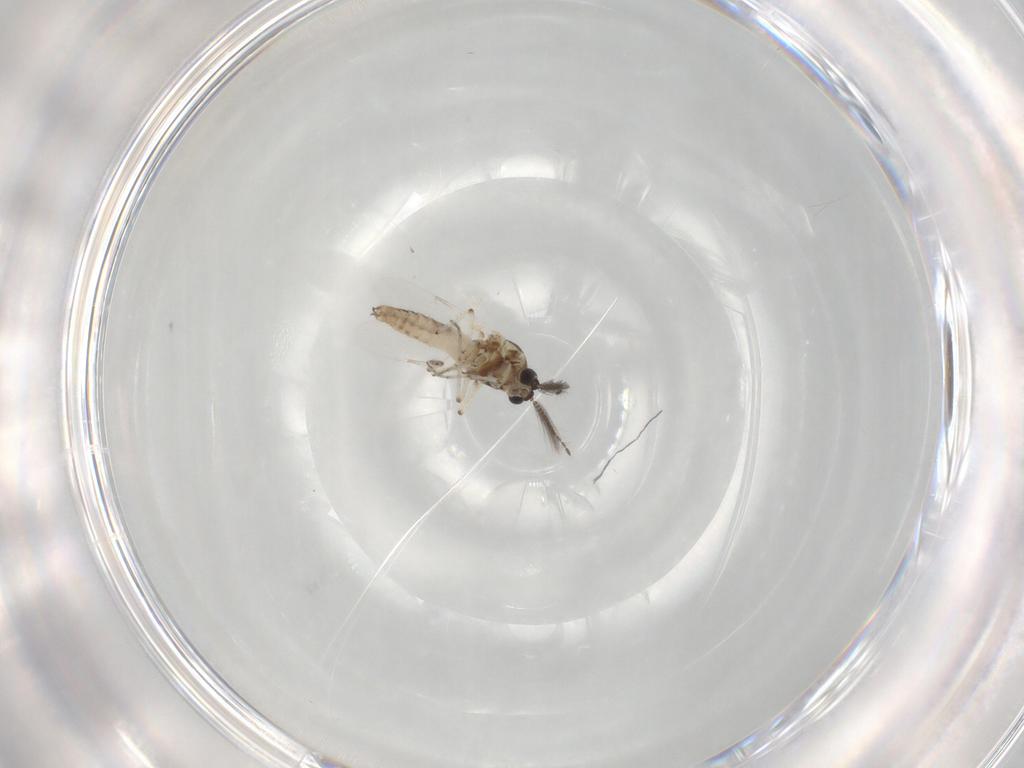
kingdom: Animalia
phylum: Arthropoda
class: Insecta
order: Diptera
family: Ceratopogonidae
